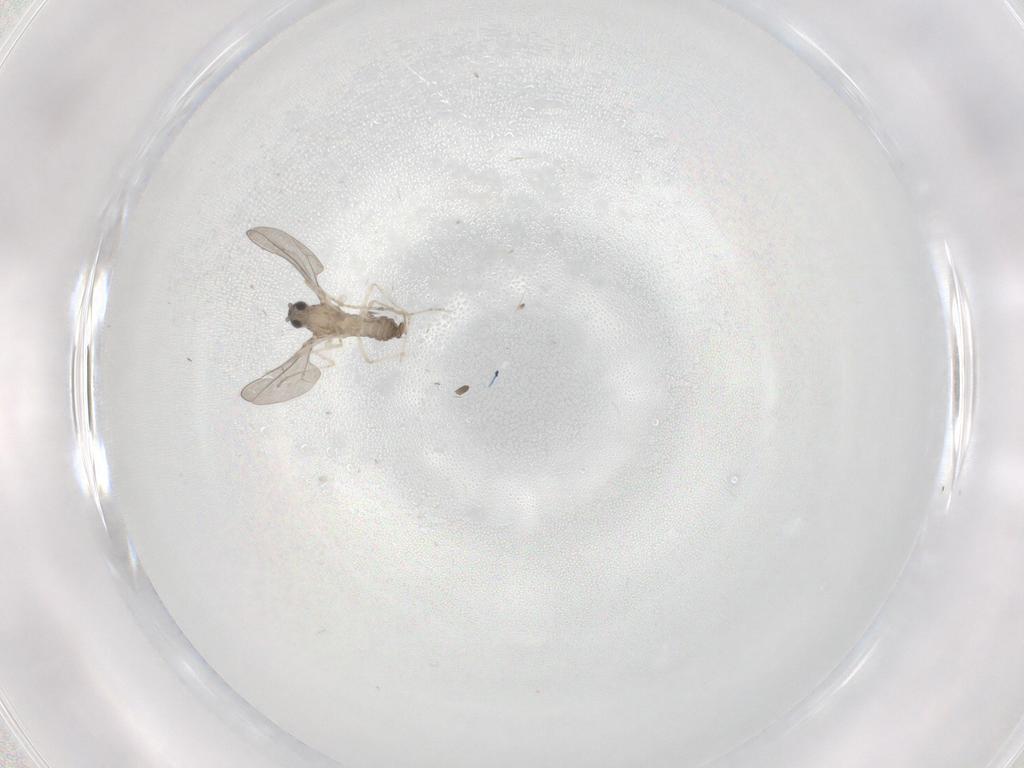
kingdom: Animalia
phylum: Arthropoda
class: Insecta
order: Diptera
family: Cecidomyiidae
